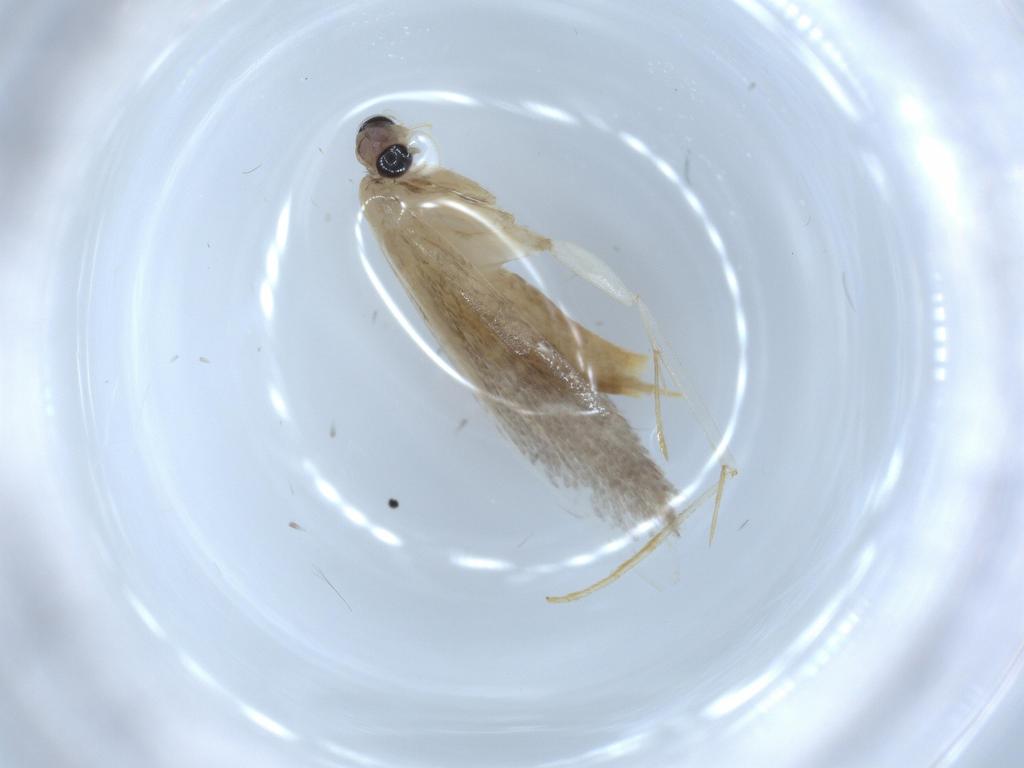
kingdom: Animalia
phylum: Arthropoda
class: Insecta
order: Lepidoptera
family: Tineidae
